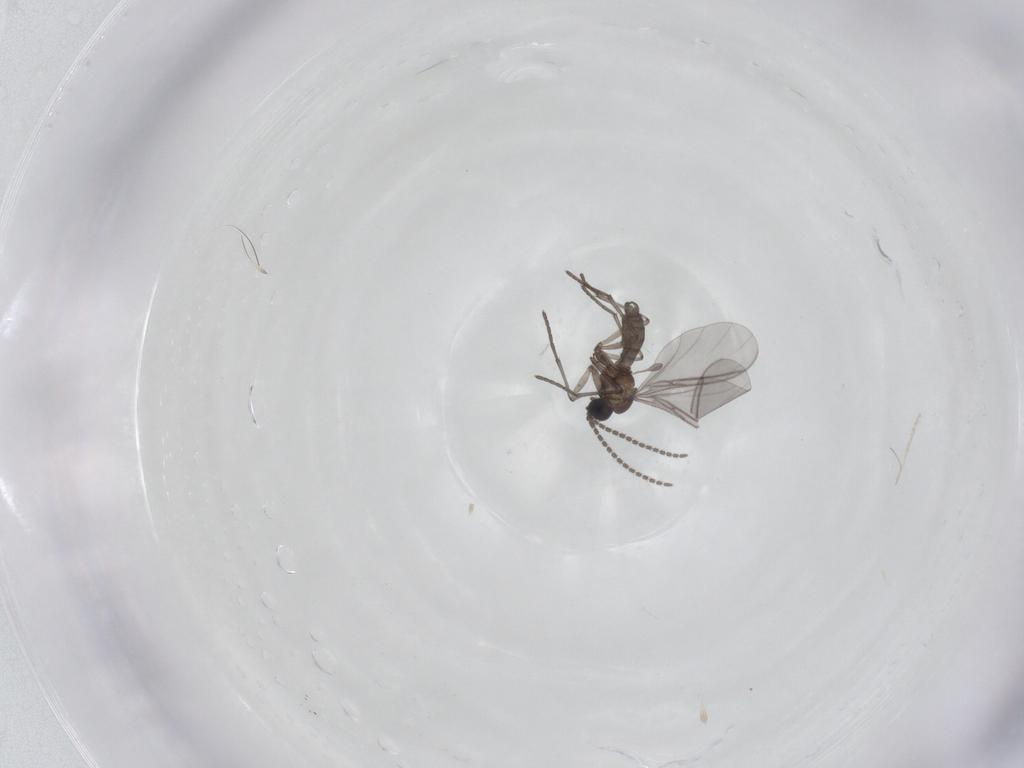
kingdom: Animalia
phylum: Arthropoda
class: Insecta
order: Diptera
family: Sciaridae
